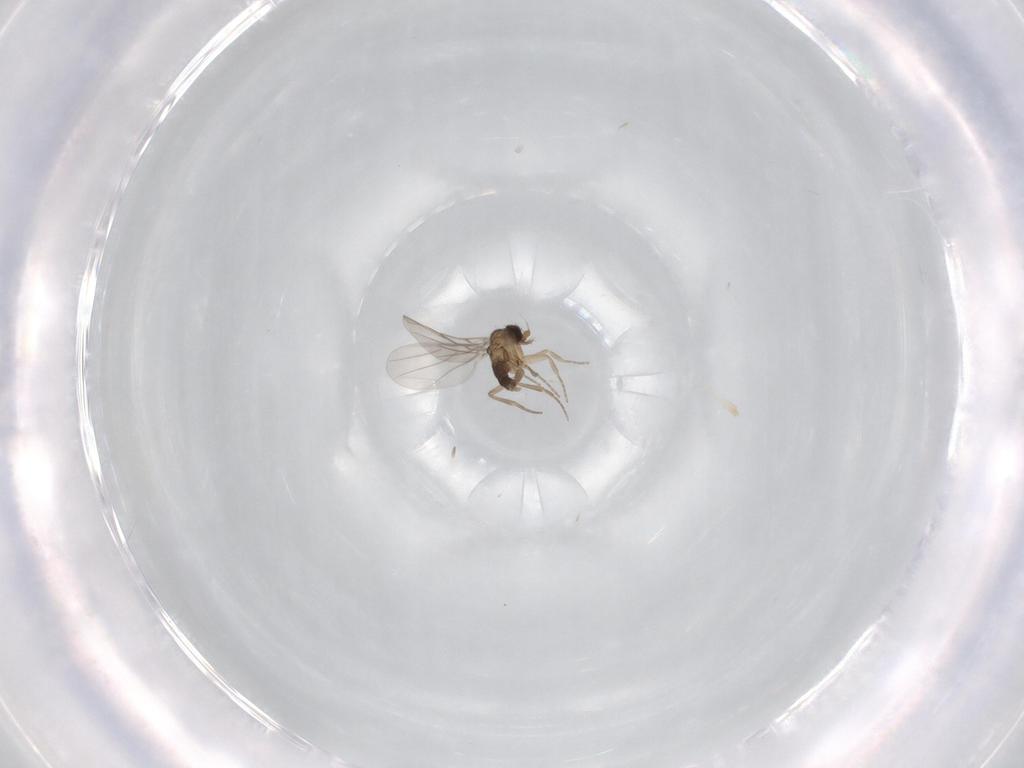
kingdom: Animalia
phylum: Arthropoda
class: Insecta
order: Diptera
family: Phoridae
